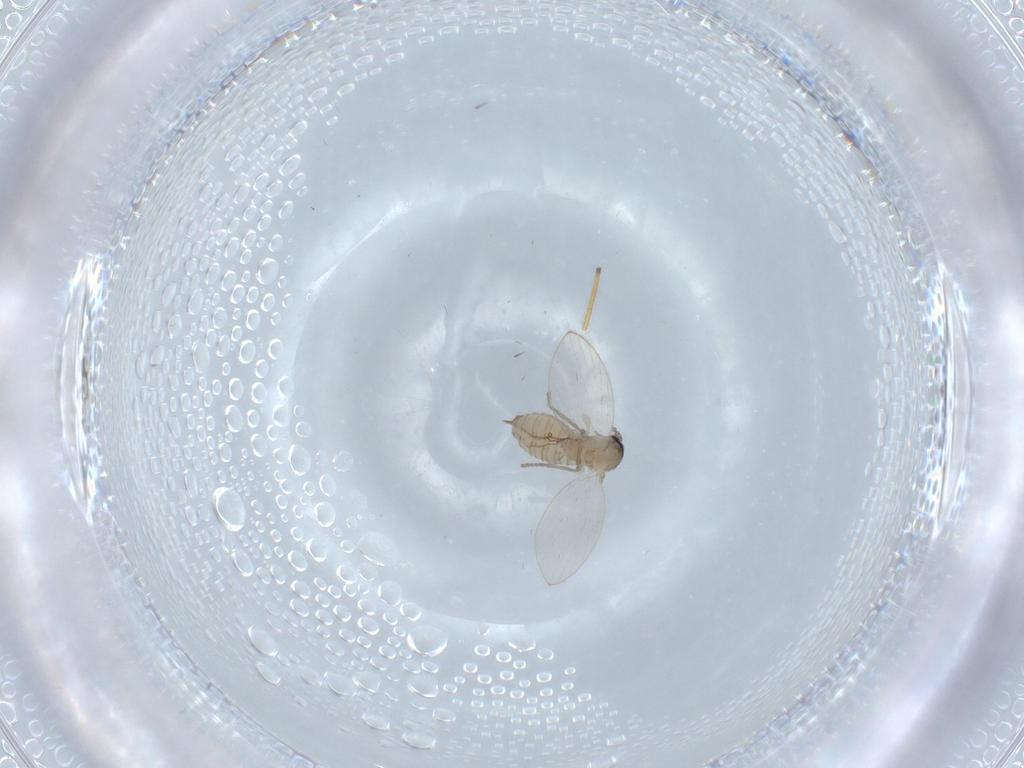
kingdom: Animalia
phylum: Arthropoda
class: Insecta
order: Diptera
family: Psychodidae
